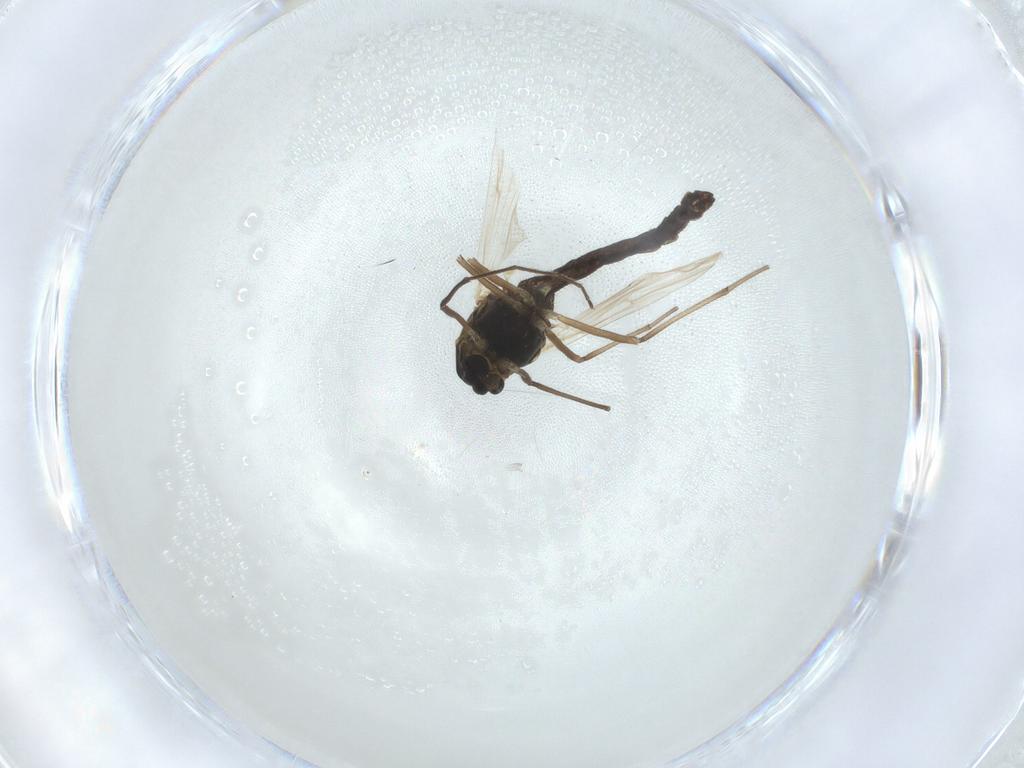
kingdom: Animalia
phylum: Arthropoda
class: Insecta
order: Diptera
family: Chironomidae
